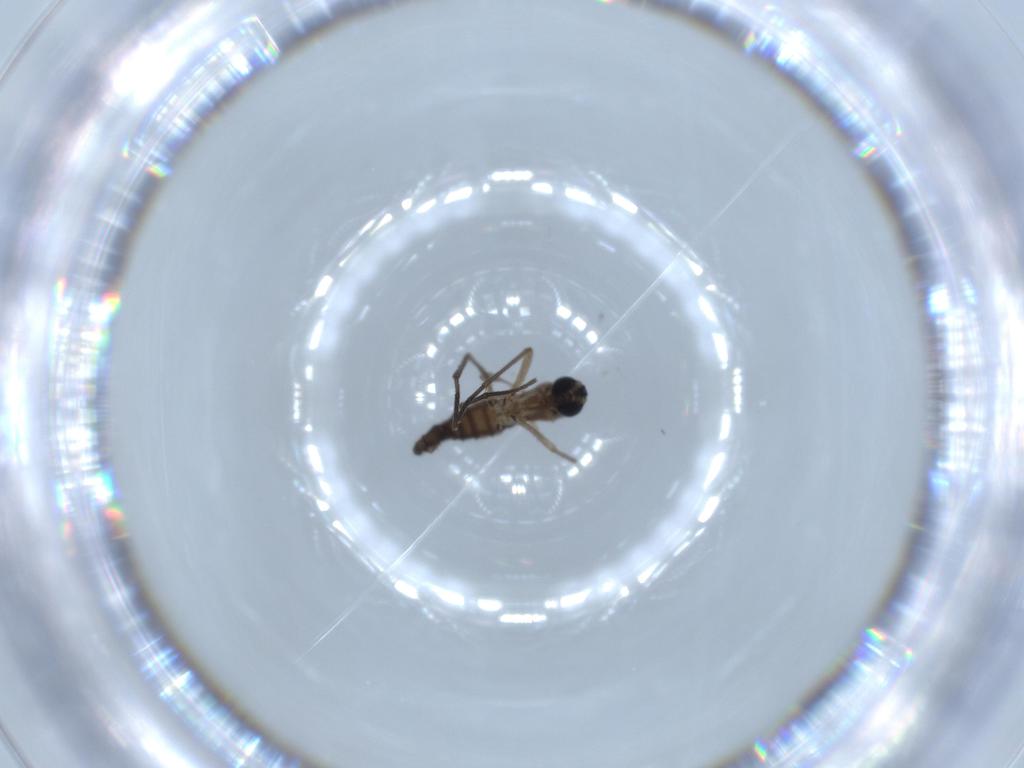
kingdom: Animalia
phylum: Arthropoda
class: Insecta
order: Diptera
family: Sciaridae
